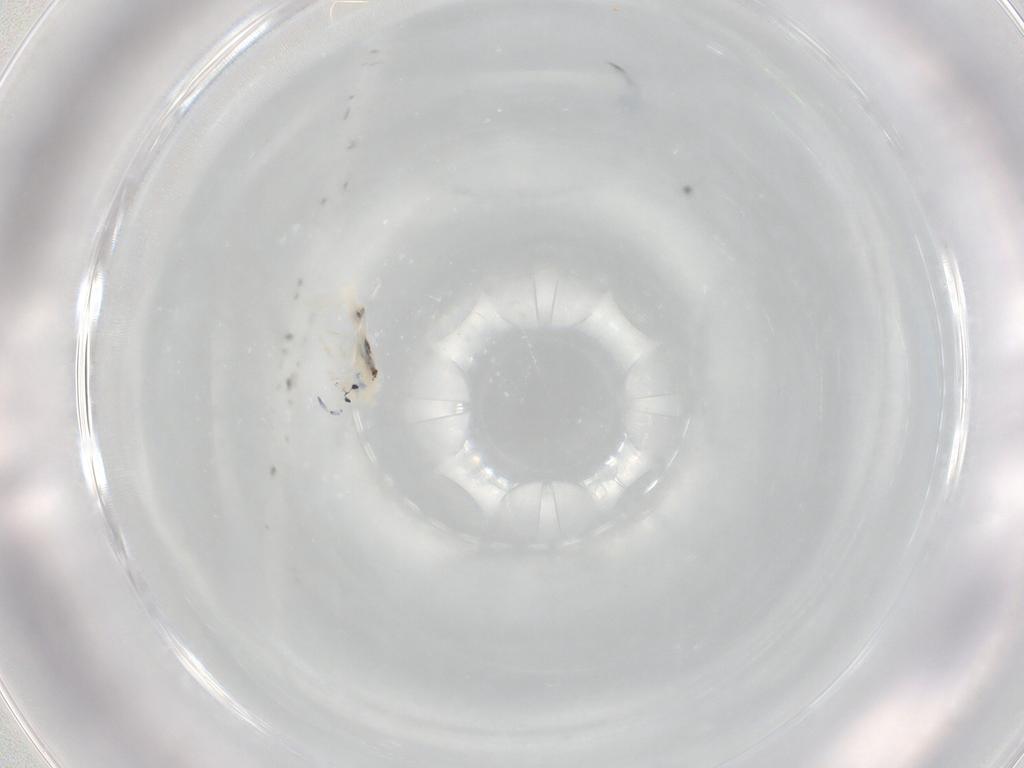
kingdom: Animalia
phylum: Arthropoda
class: Collembola
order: Entomobryomorpha
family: Entomobryidae
